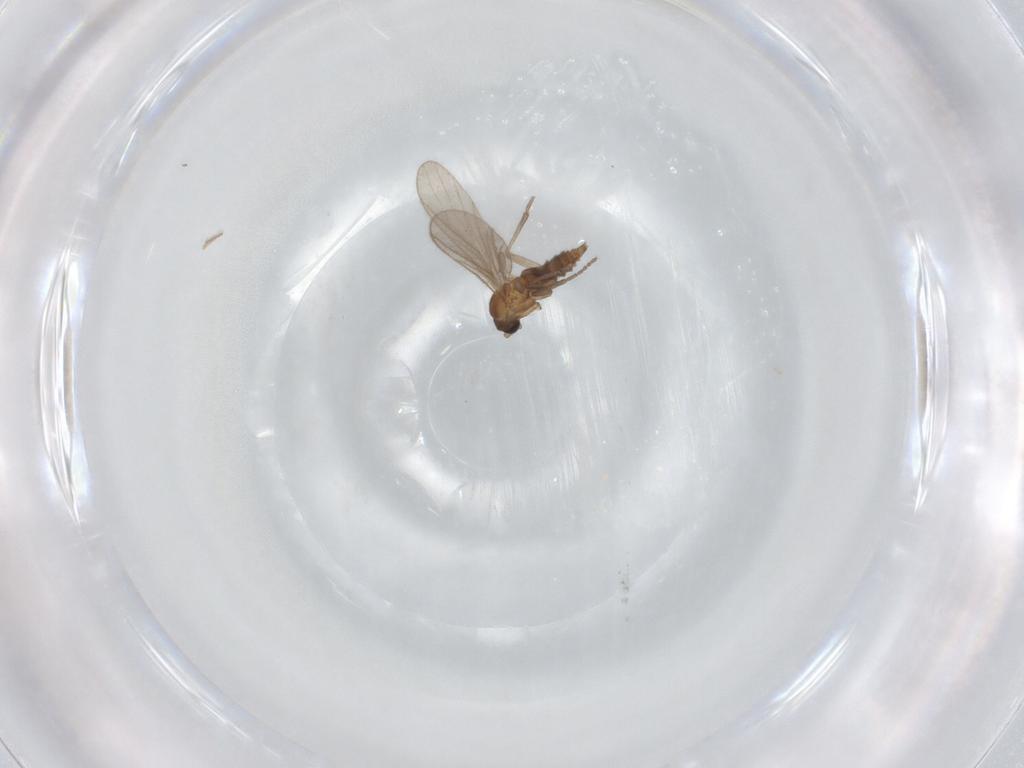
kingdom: Animalia
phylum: Arthropoda
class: Insecta
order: Diptera
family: Sciaridae
